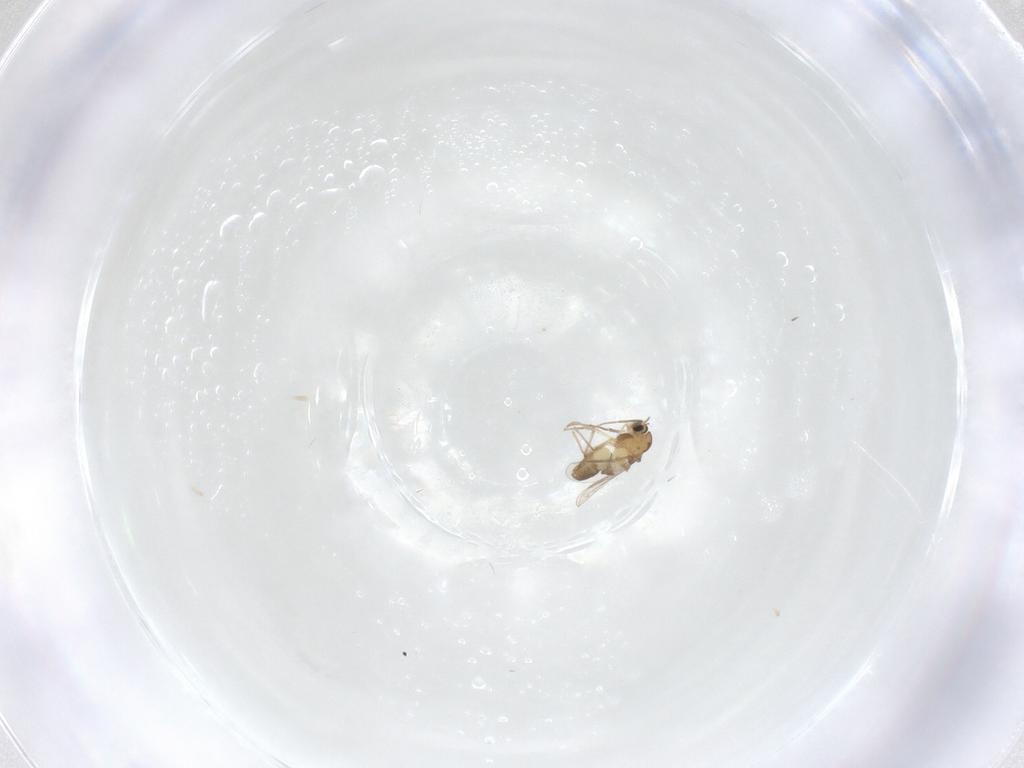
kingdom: Animalia
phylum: Arthropoda
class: Insecta
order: Diptera
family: Chironomidae
